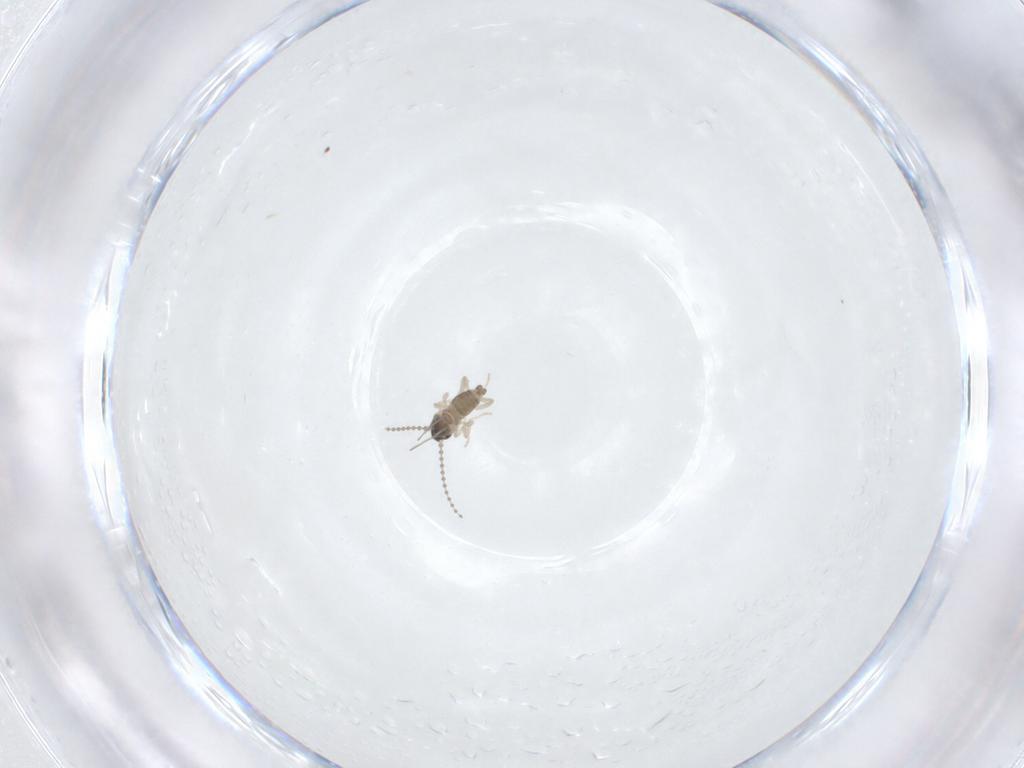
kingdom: Animalia
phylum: Arthropoda
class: Insecta
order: Diptera
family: Cecidomyiidae
